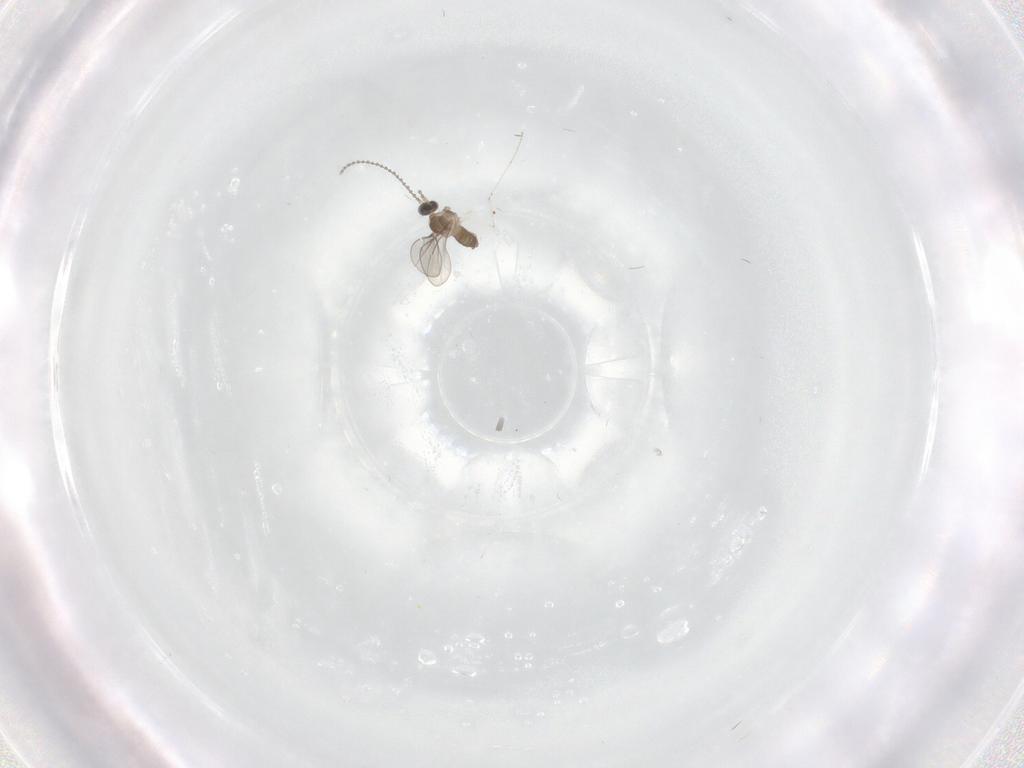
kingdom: Animalia
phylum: Arthropoda
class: Insecta
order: Diptera
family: Cecidomyiidae
